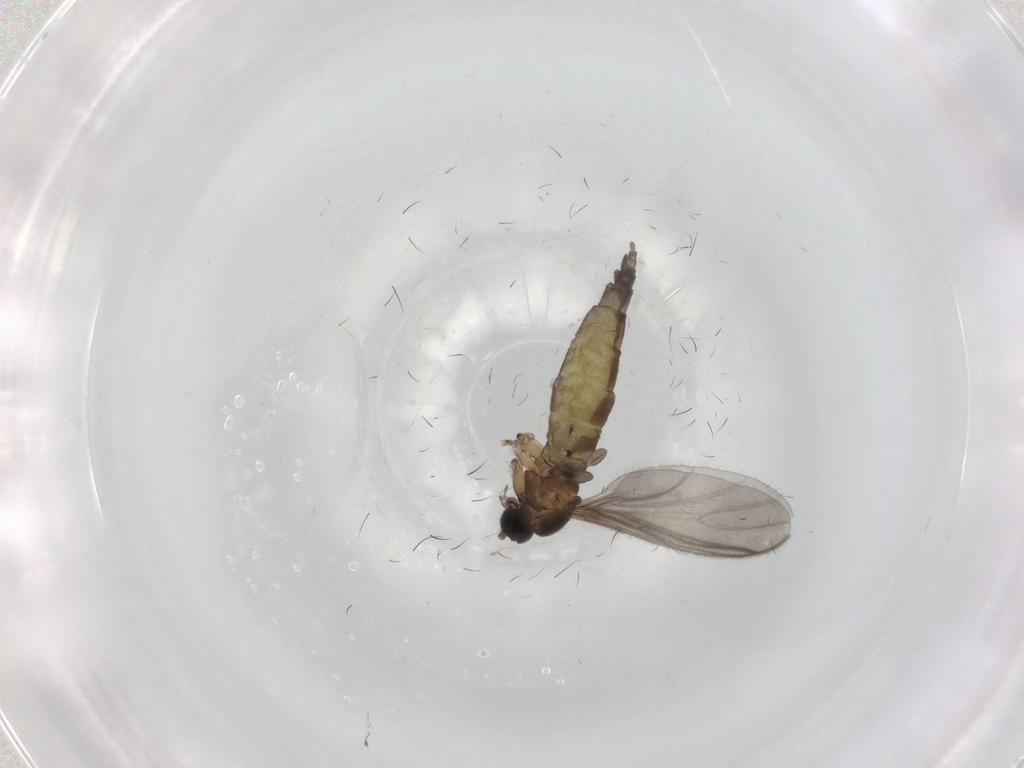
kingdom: Animalia
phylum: Arthropoda
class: Insecta
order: Diptera
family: Sciaridae
